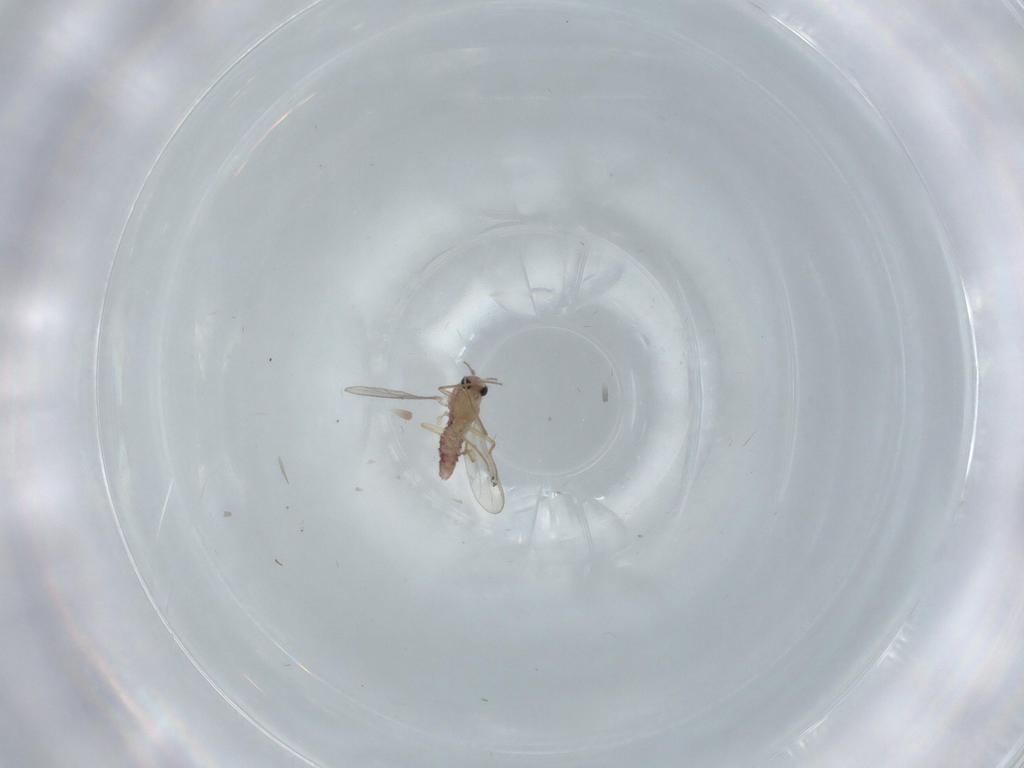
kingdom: Animalia
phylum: Arthropoda
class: Insecta
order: Diptera
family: Chironomidae
